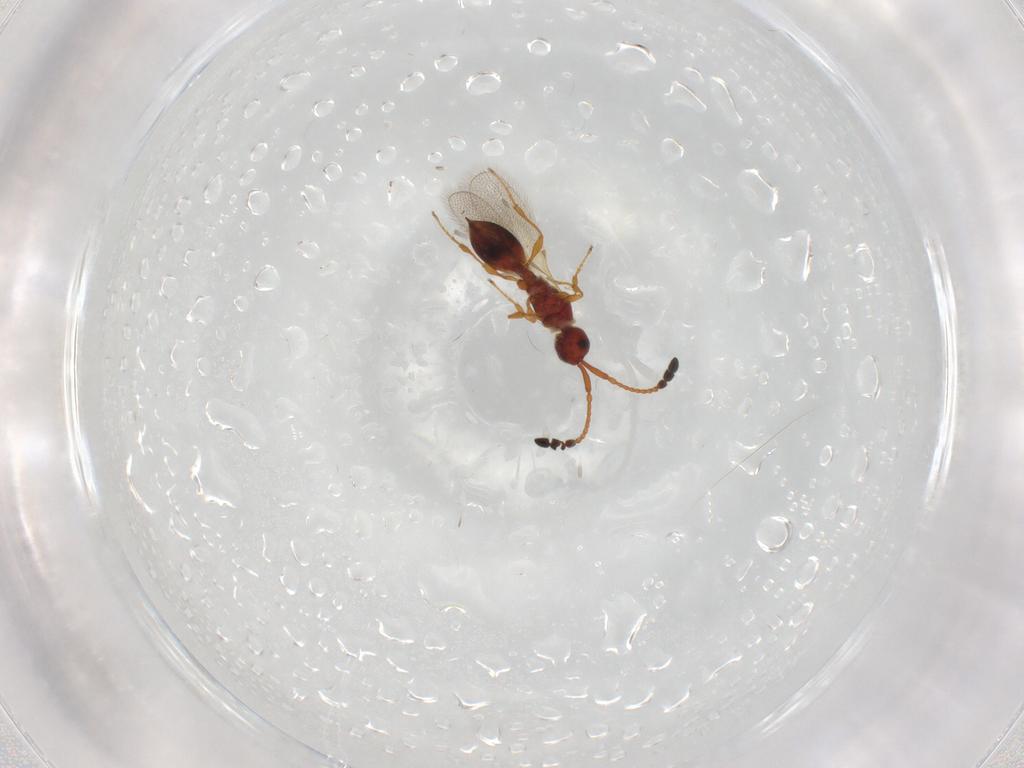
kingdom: Animalia
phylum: Arthropoda
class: Insecta
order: Hymenoptera
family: Diapriidae
